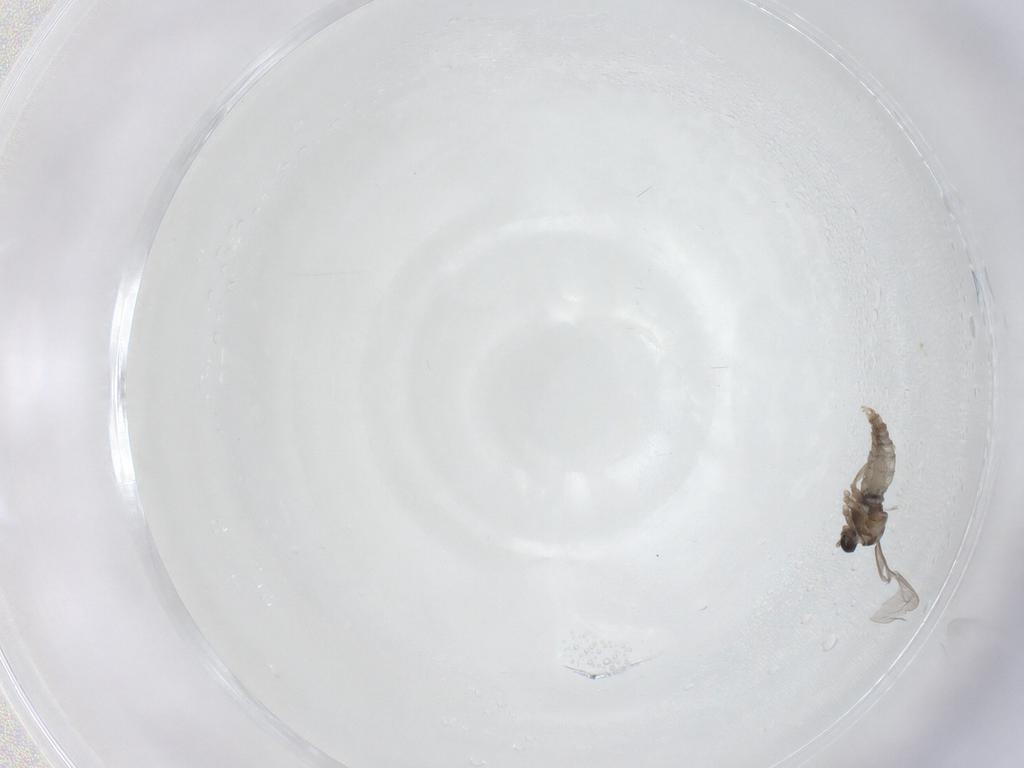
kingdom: Animalia
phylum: Arthropoda
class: Insecta
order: Diptera
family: Cecidomyiidae
